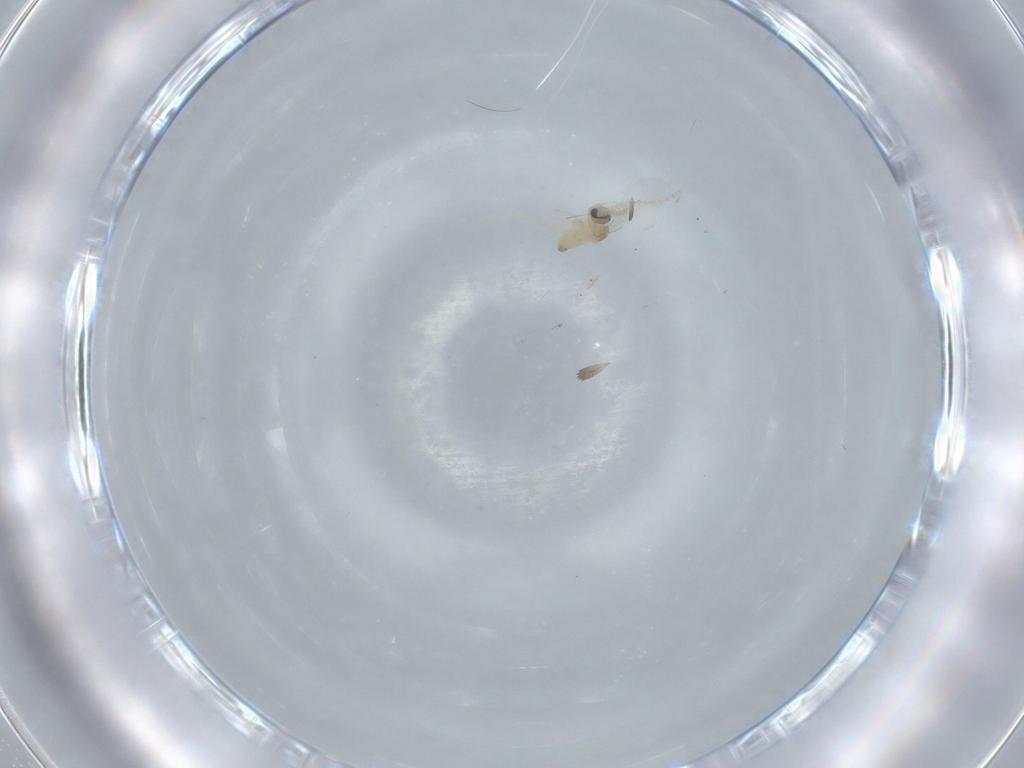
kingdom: Animalia
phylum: Arthropoda
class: Insecta
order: Diptera
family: Cecidomyiidae
